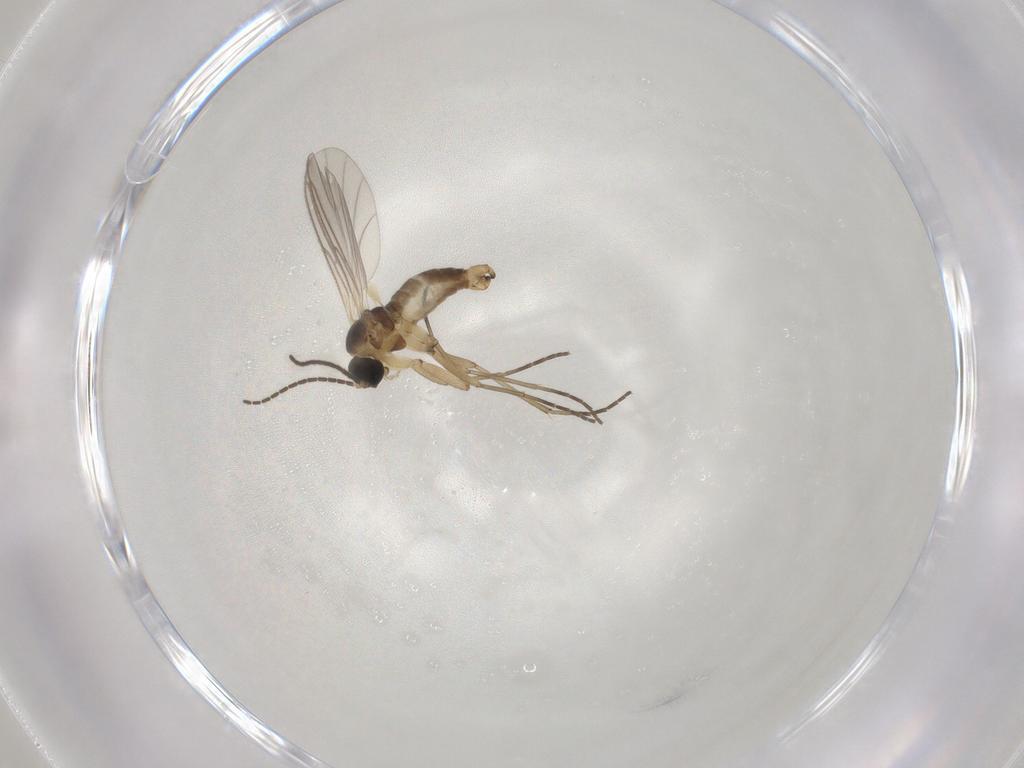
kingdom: Animalia
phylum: Arthropoda
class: Insecta
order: Diptera
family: Sciaridae
